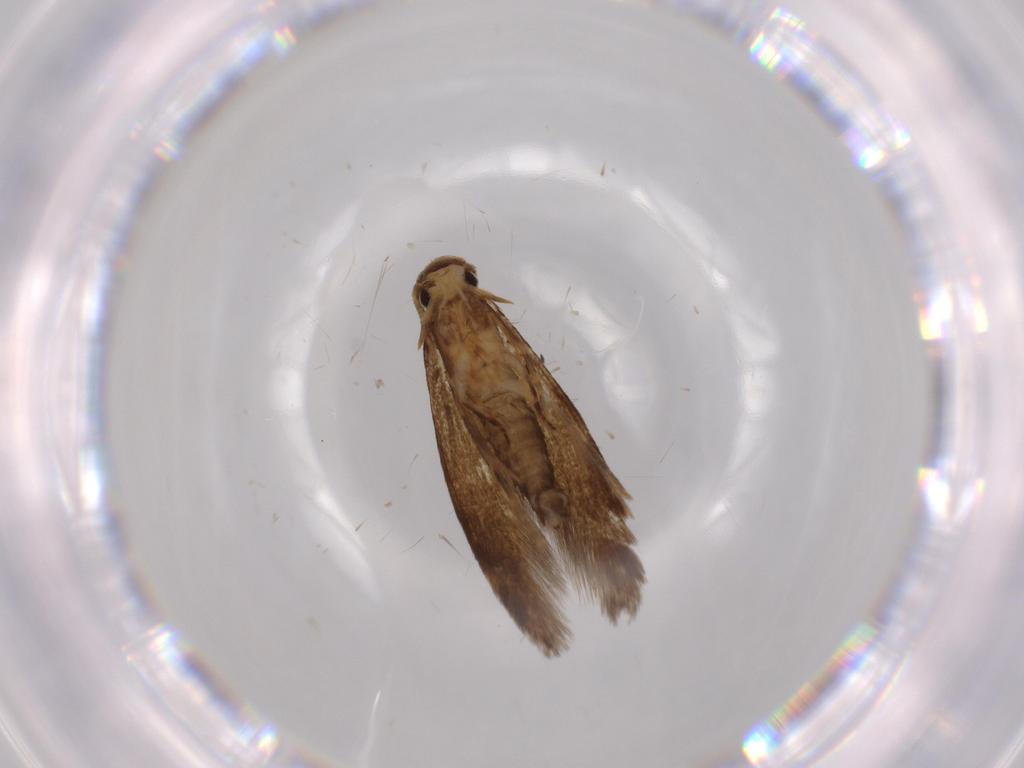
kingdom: Animalia
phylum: Arthropoda
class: Insecta
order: Lepidoptera
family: Tineidae
